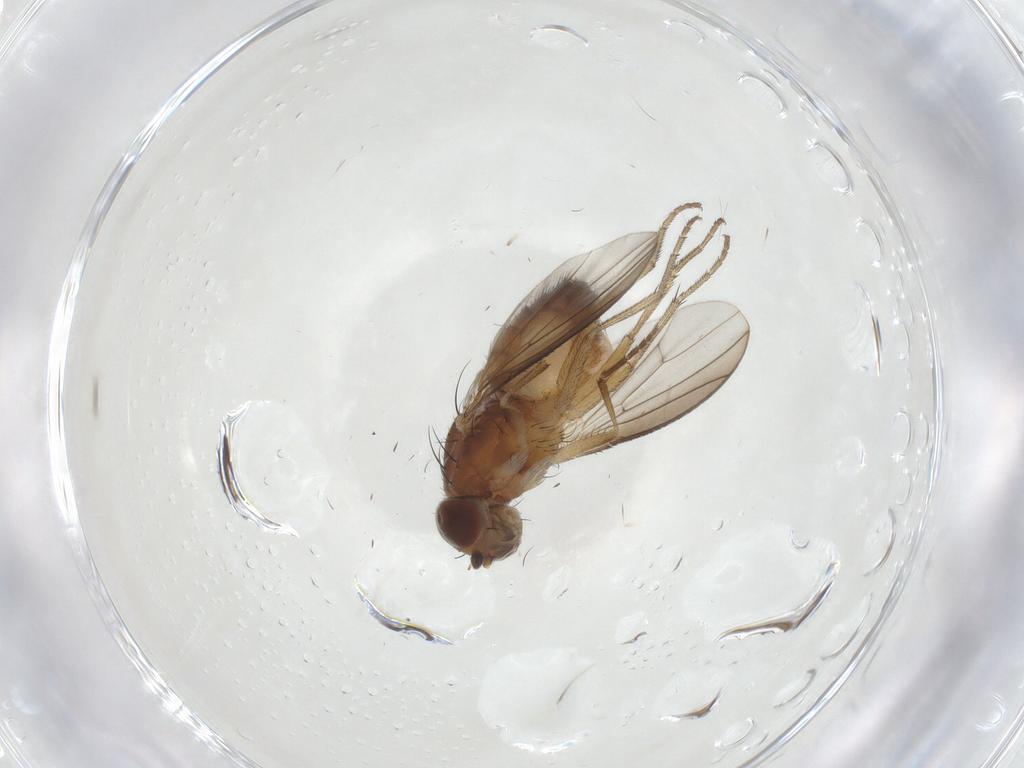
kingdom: Animalia
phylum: Arthropoda
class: Insecta
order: Diptera
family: Heleomyzidae
